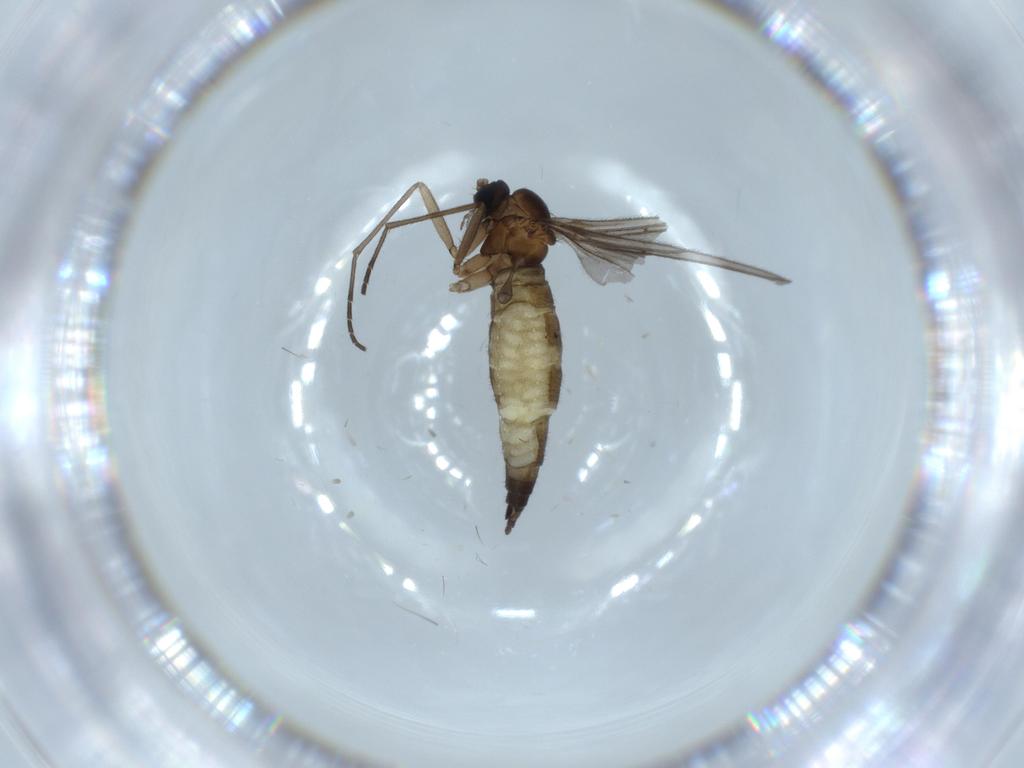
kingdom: Animalia
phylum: Arthropoda
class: Insecta
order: Diptera
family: Sciaridae
